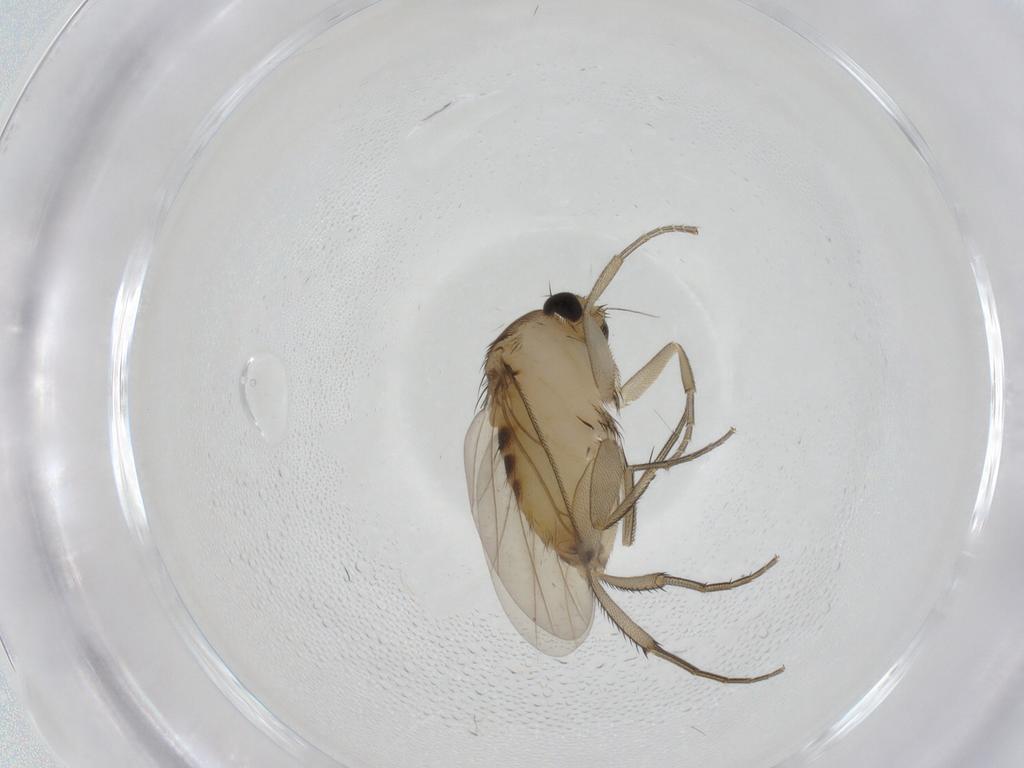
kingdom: Animalia
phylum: Arthropoda
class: Insecta
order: Diptera
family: Phoridae
